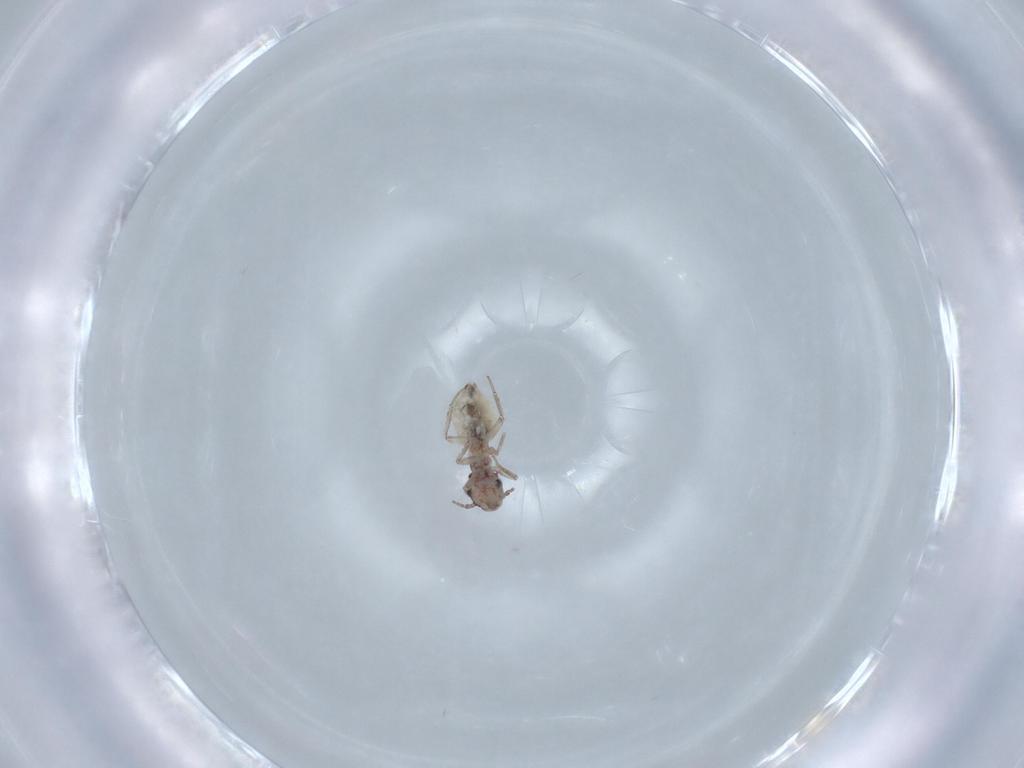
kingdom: Animalia
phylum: Arthropoda
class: Insecta
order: Psocodea
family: Lepidopsocidae
